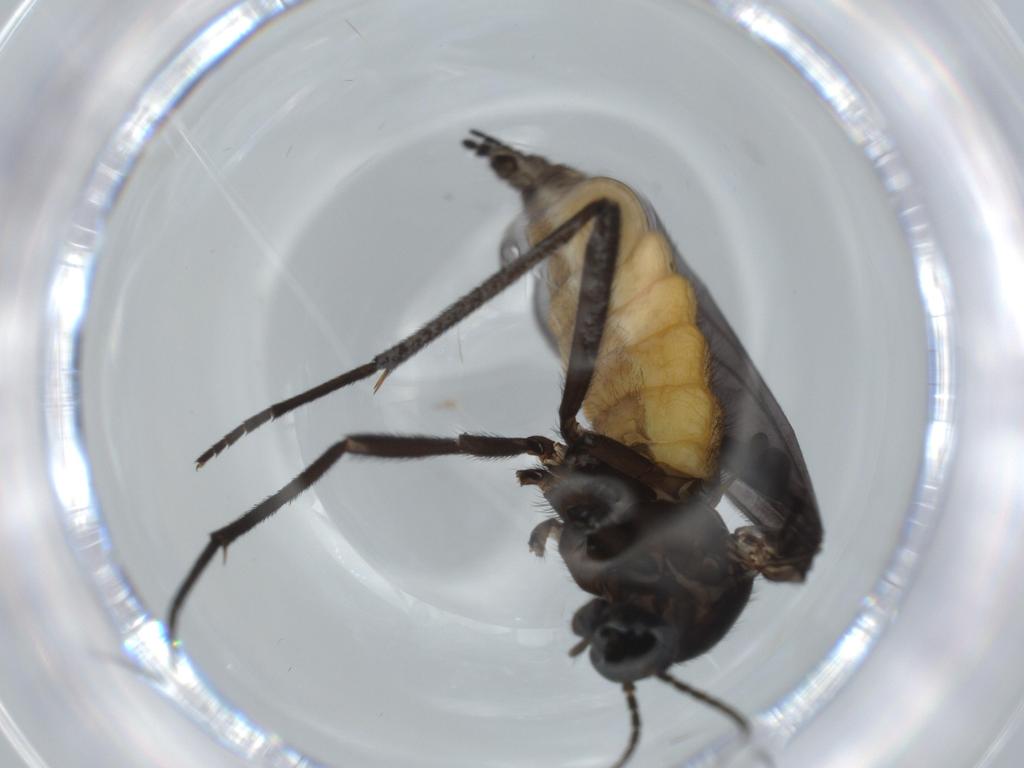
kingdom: Animalia
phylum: Arthropoda
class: Insecta
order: Diptera
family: Sciaridae
